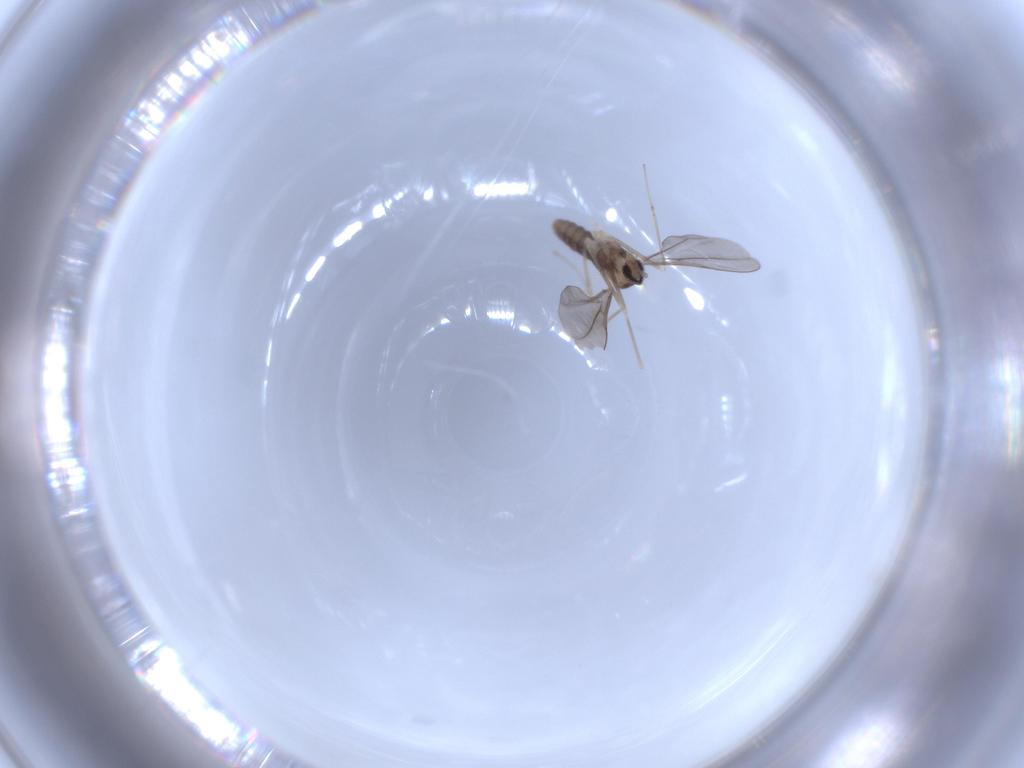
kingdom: Animalia
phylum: Arthropoda
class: Insecta
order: Diptera
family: Cecidomyiidae
